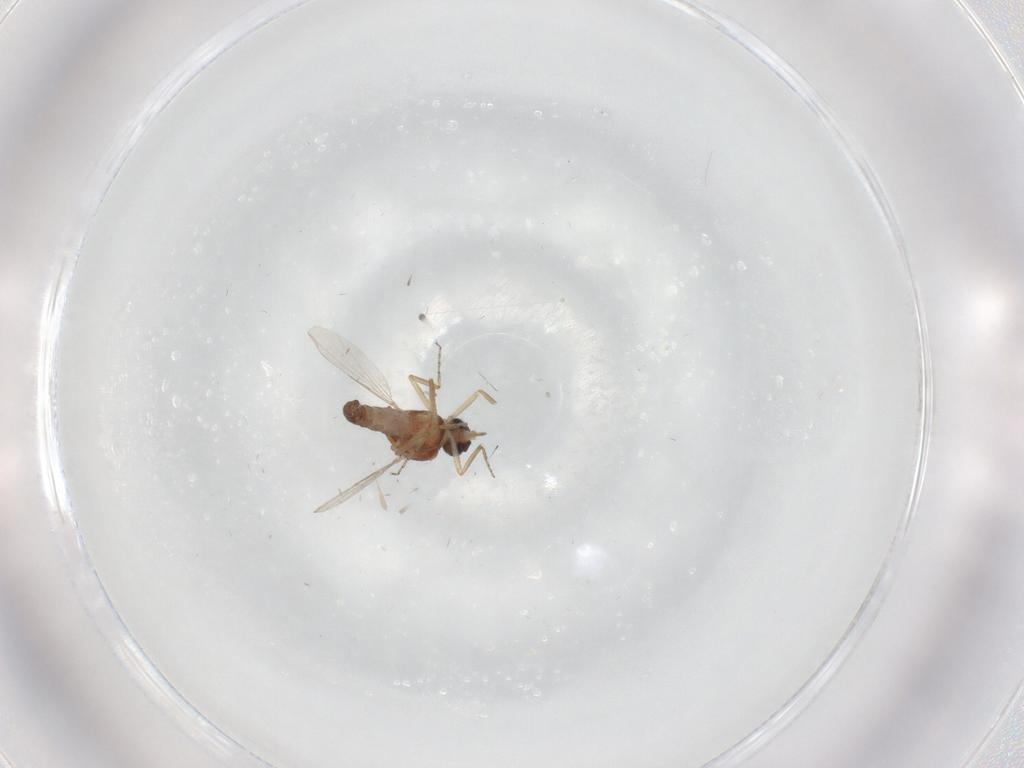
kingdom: Animalia
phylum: Arthropoda
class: Insecta
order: Diptera
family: Ceratopogonidae
